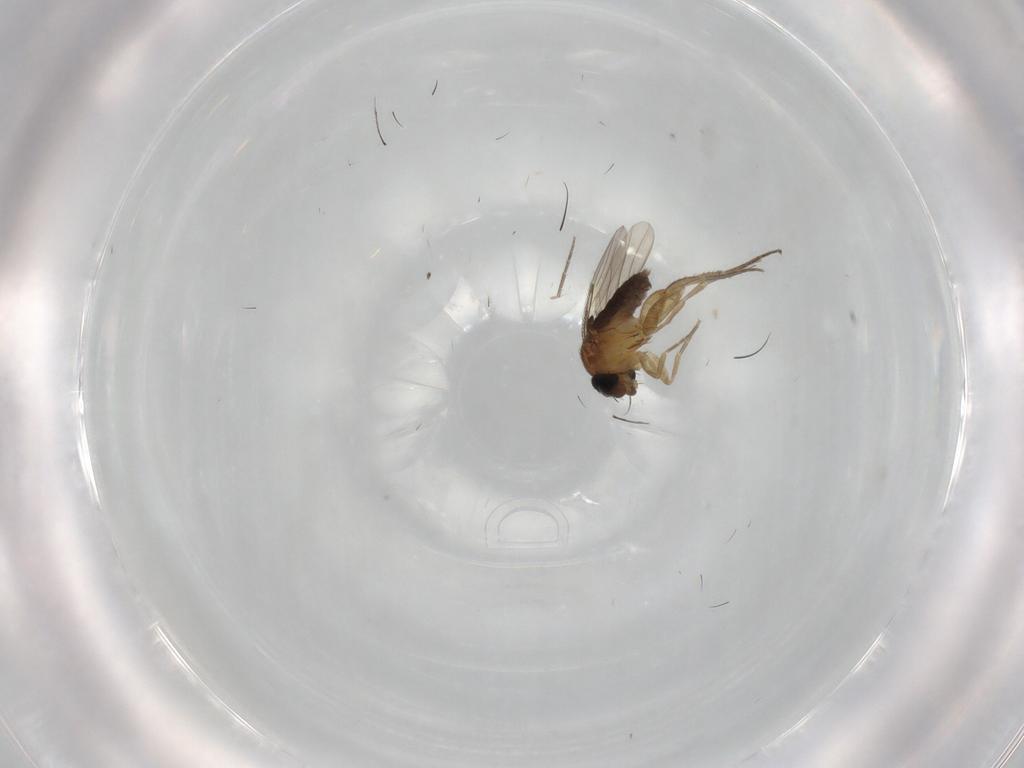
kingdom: Animalia
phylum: Arthropoda
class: Insecta
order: Diptera
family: Phoridae
